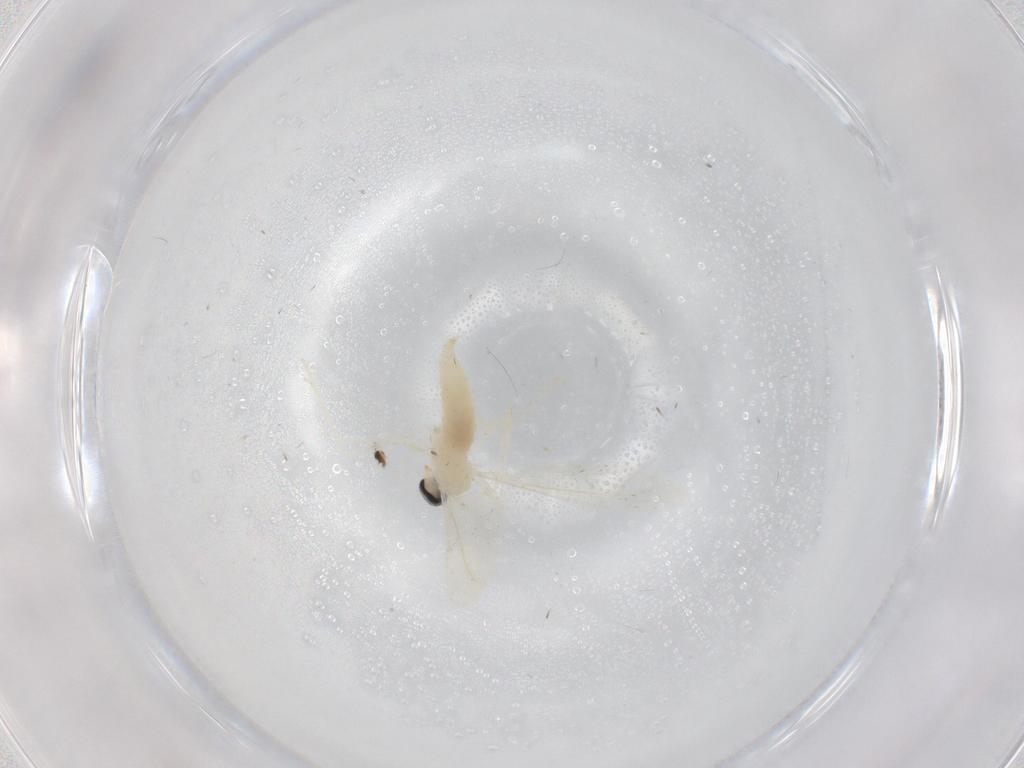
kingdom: Animalia
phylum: Arthropoda
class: Insecta
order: Diptera
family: Cecidomyiidae
